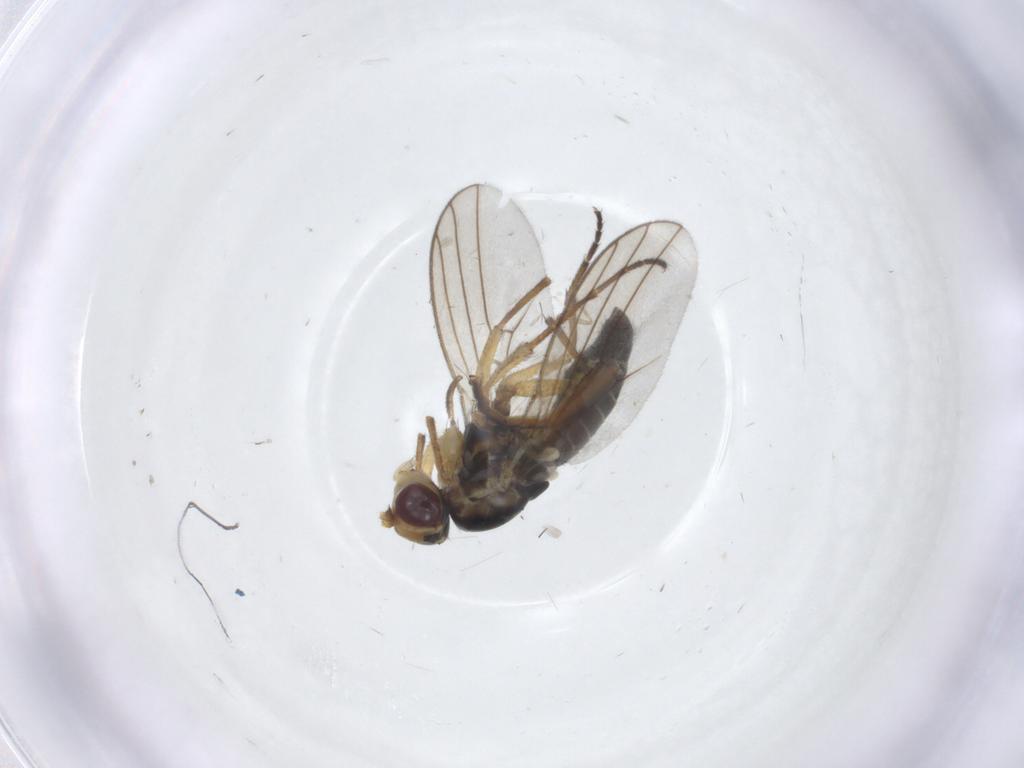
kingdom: Animalia
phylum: Arthropoda
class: Insecta
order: Diptera
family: Agromyzidae
